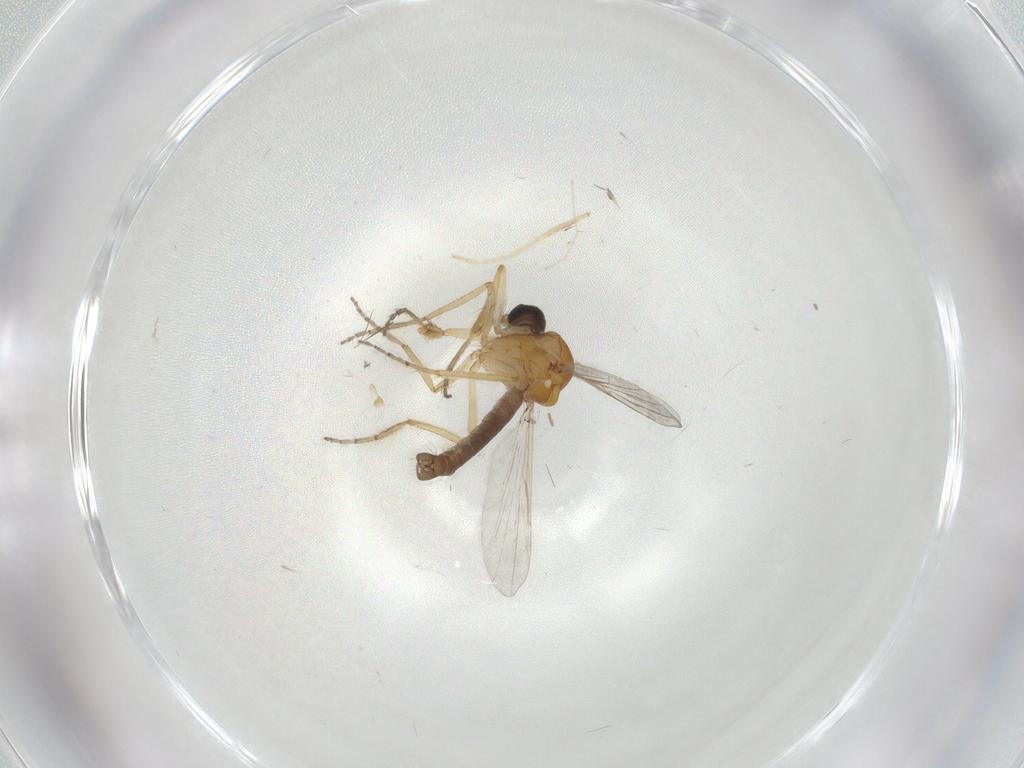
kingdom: Animalia
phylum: Arthropoda
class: Insecta
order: Diptera
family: Ceratopogonidae
